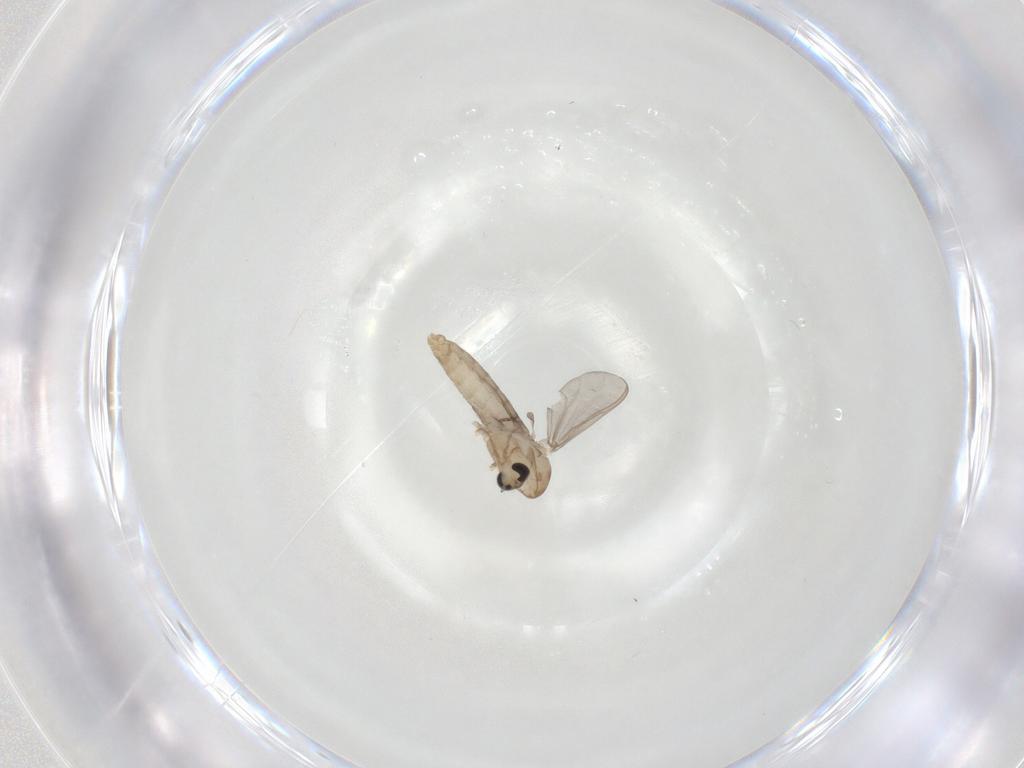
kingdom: Animalia
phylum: Arthropoda
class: Insecta
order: Diptera
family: Chironomidae
